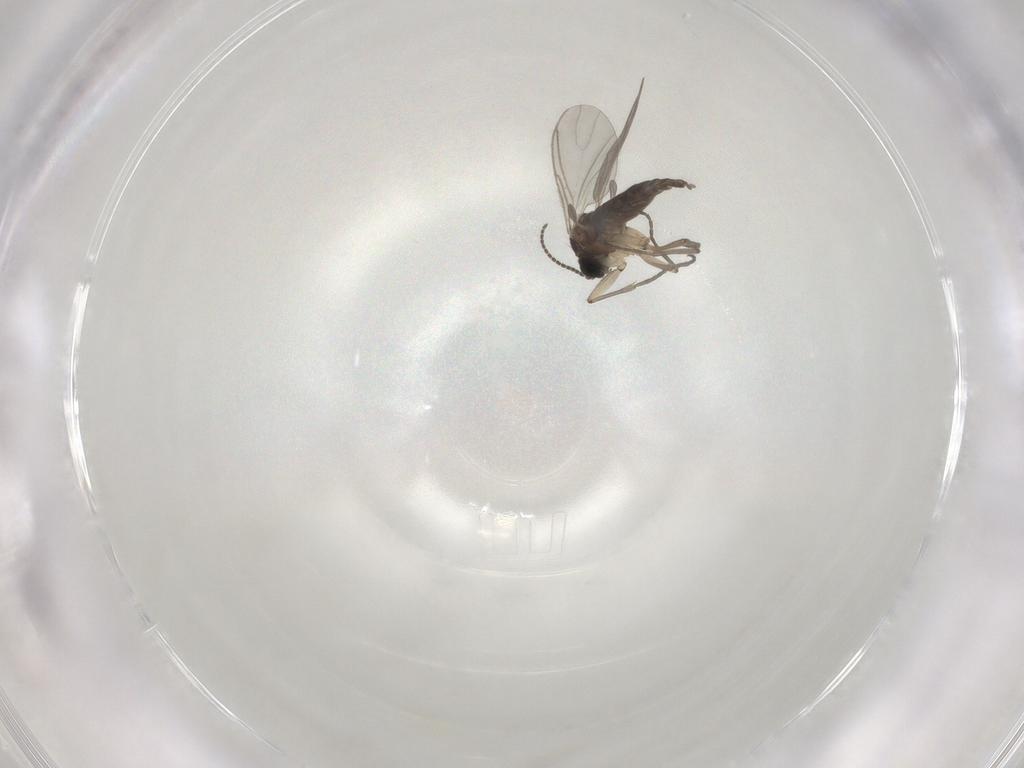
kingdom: Animalia
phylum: Arthropoda
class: Insecta
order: Diptera
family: Sciaridae
